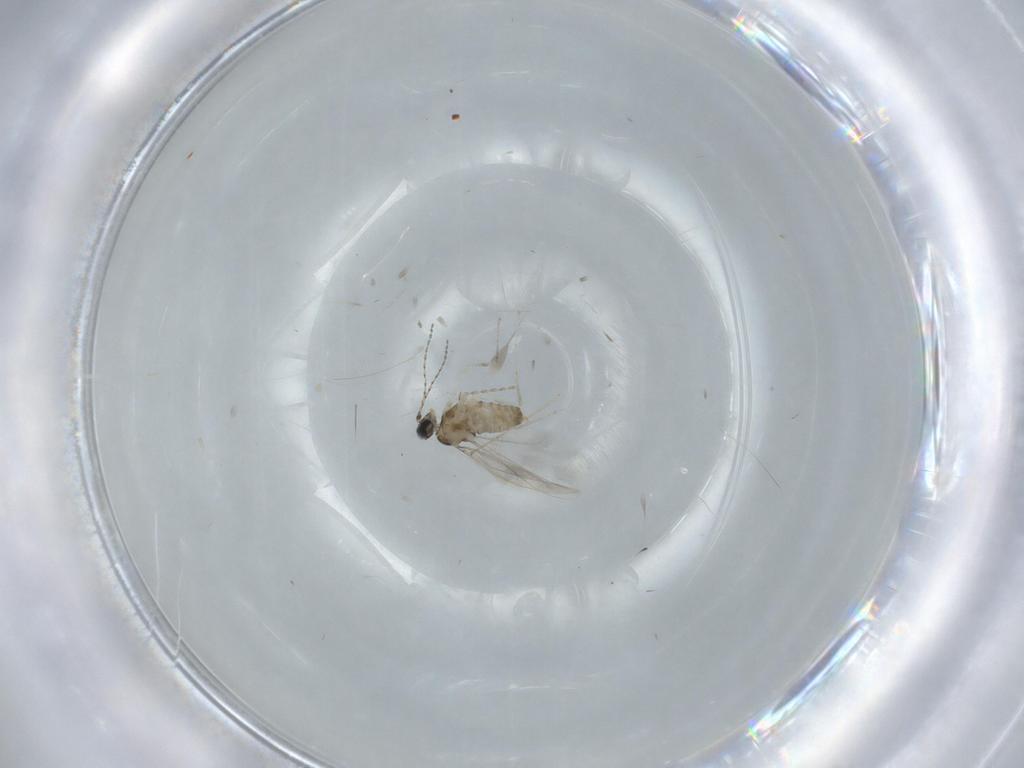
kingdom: Animalia
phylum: Arthropoda
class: Insecta
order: Diptera
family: Cecidomyiidae
